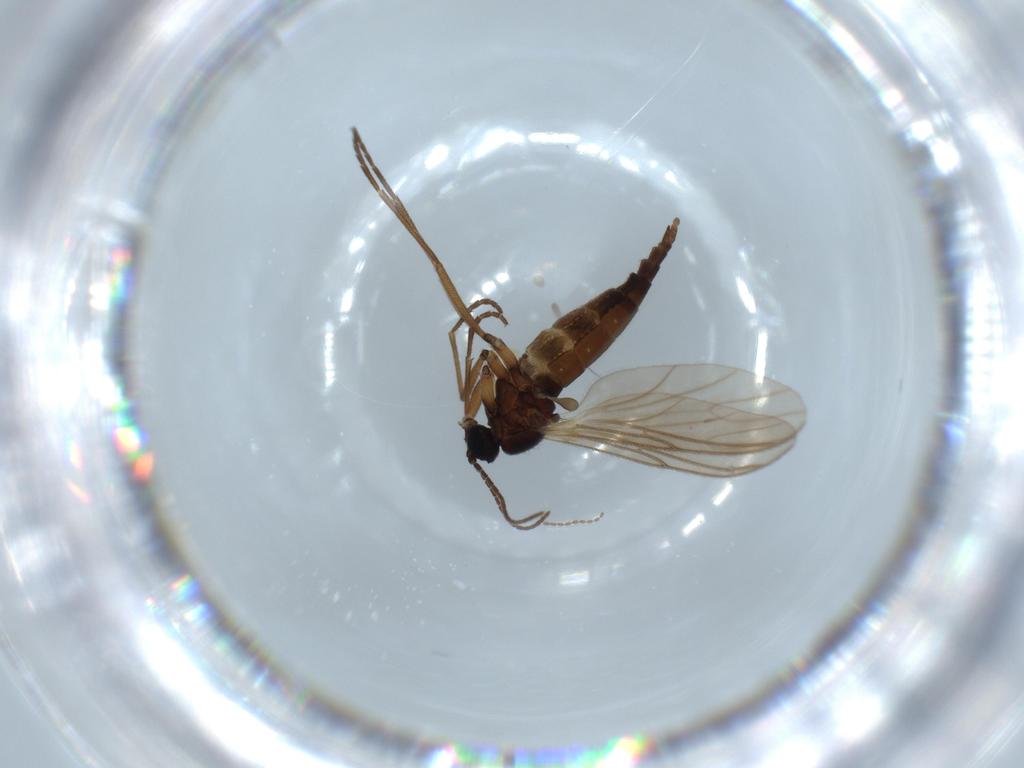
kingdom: Animalia
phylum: Arthropoda
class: Insecta
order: Diptera
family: Sciaridae
